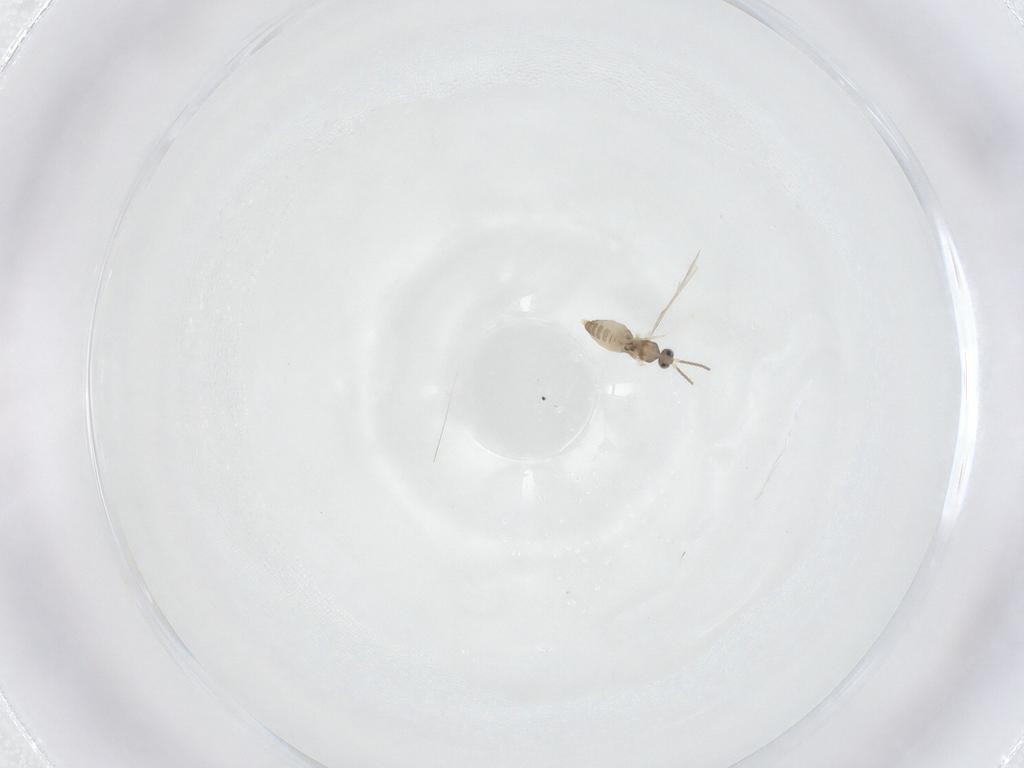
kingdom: Animalia
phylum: Arthropoda
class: Insecta
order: Diptera
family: Cecidomyiidae
